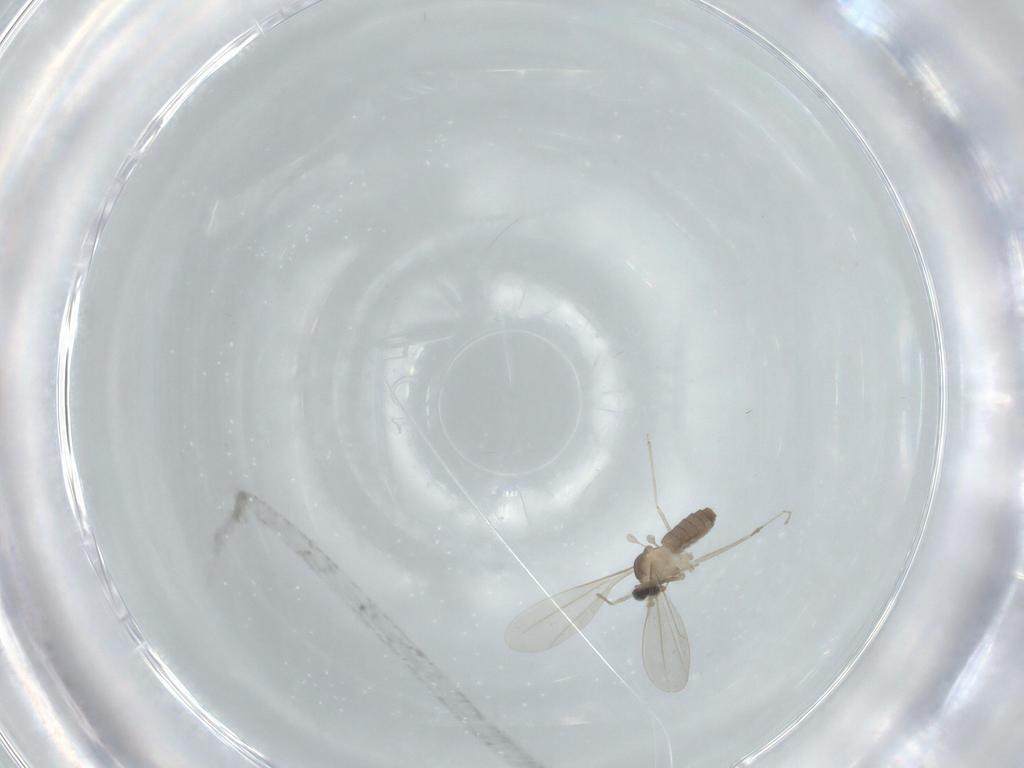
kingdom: Animalia
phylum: Arthropoda
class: Insecta
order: Diptera
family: Cecidomyiidae
